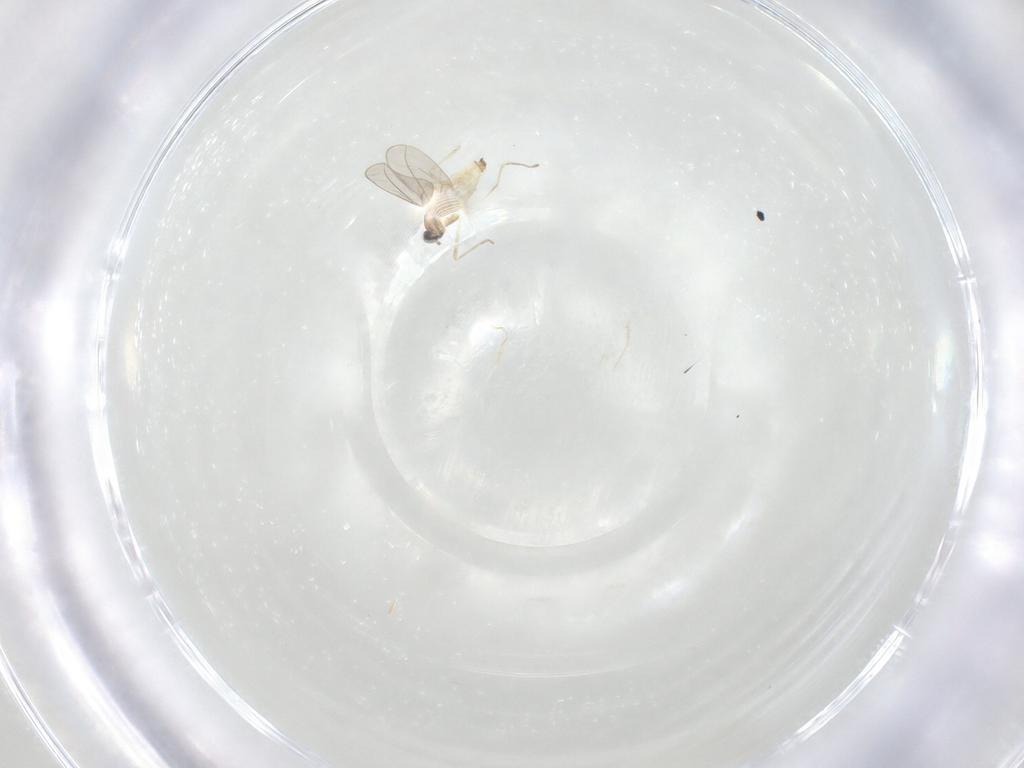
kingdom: Animalia
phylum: Arthropoda
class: Insecta
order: Diptera
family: Cecidomyiidae
